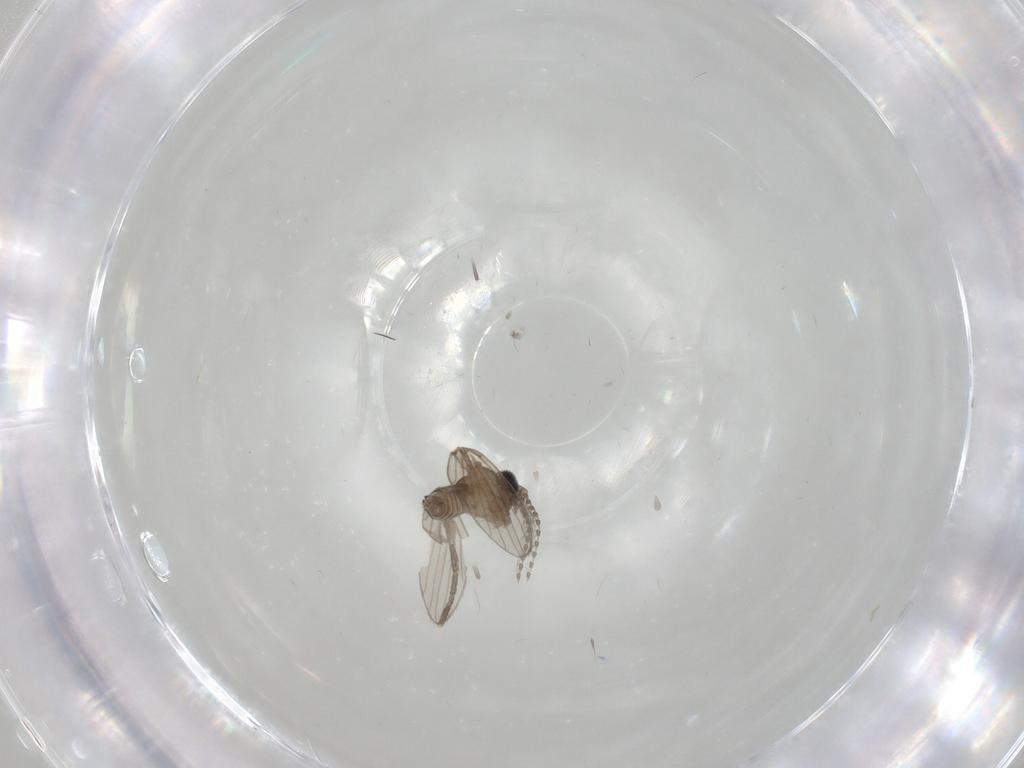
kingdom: Animalia
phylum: Arthropoda
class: Insecta
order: Diptera
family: Psychodidae
